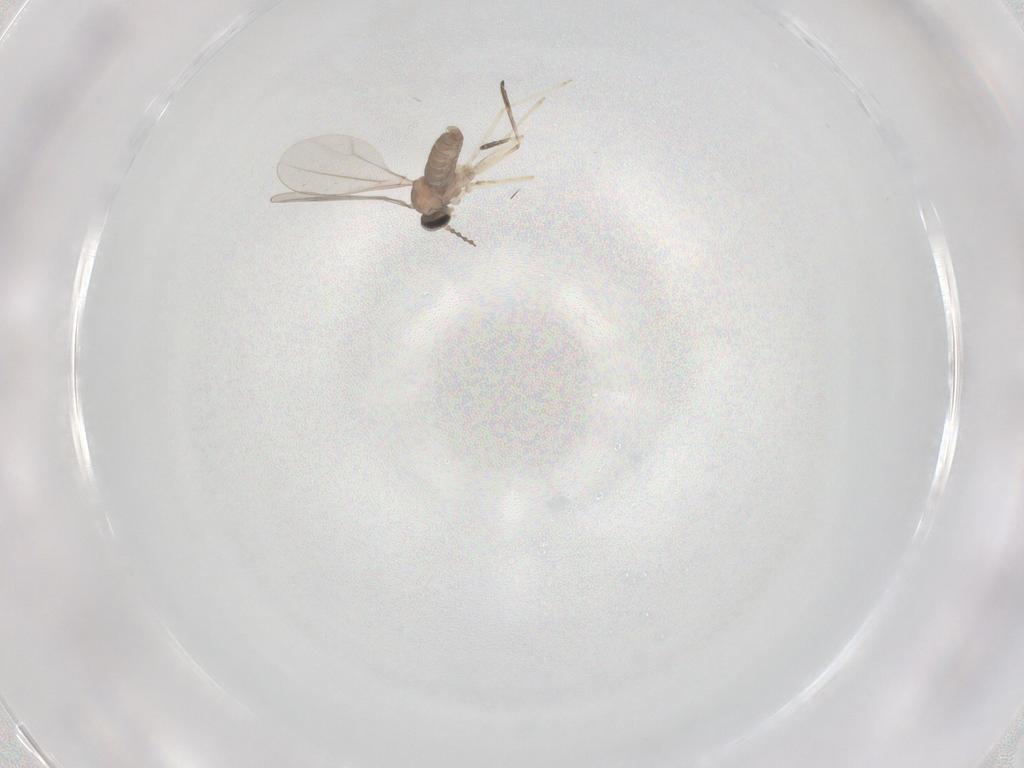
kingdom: Animalia
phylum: Arthropoda
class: Insecta
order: Diptera
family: Cecidomyiidae
